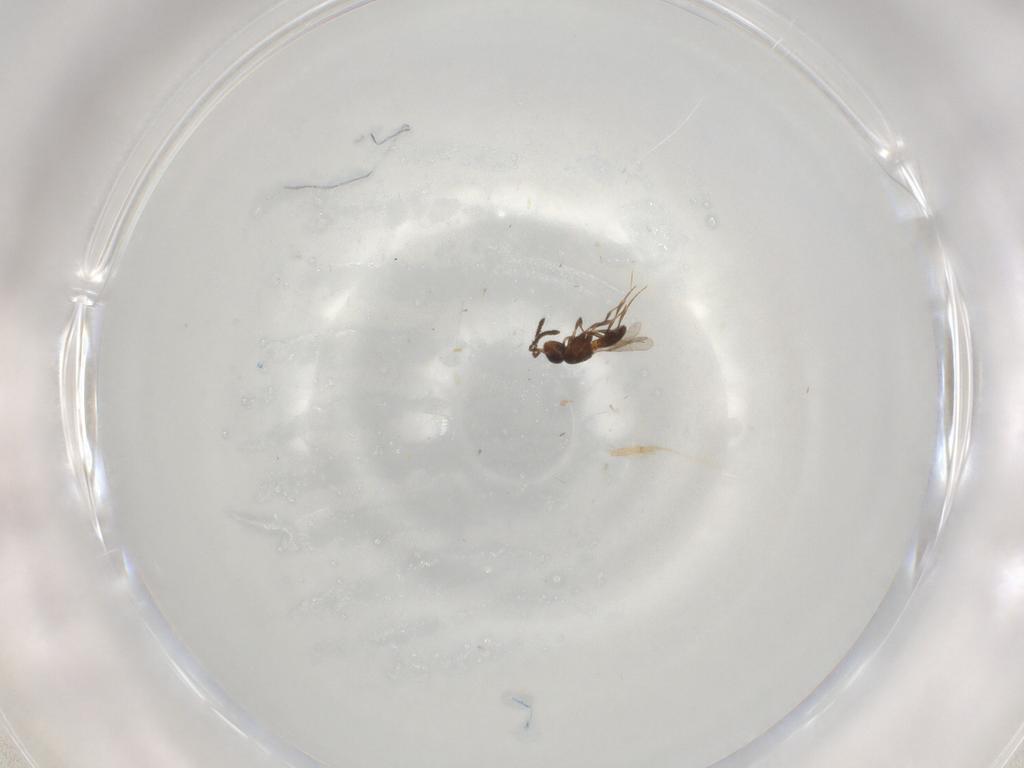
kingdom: Animalia
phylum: Arthropoda
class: Insecta
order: Hymenoptera
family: Scelionidae
